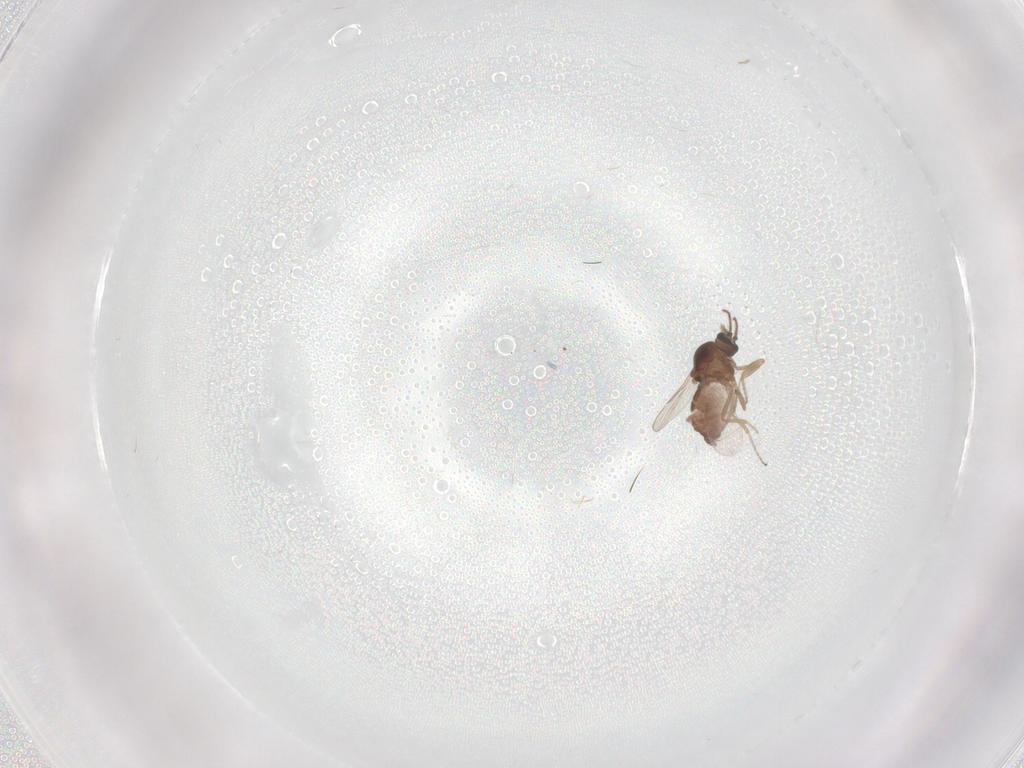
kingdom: Animalia
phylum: Arthropoda
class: Insecta
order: Diptera
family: Ceratopogonidae
